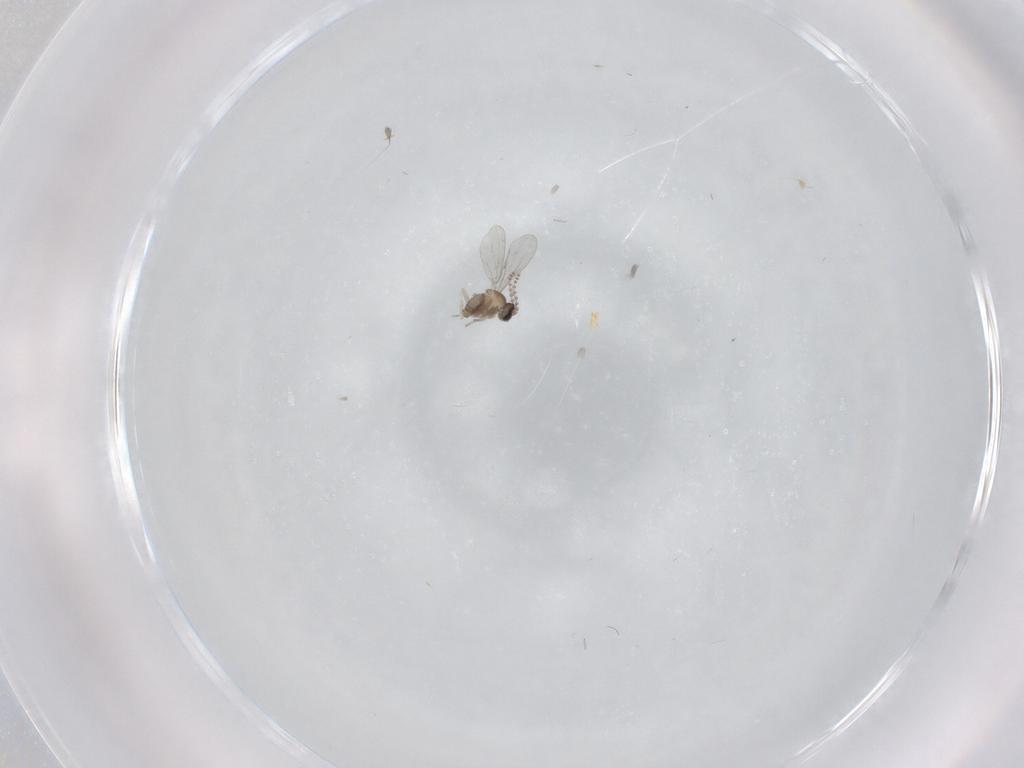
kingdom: Animalia
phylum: Arthropoda
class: Insecta
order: Diptera
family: Cecidomyiidae
